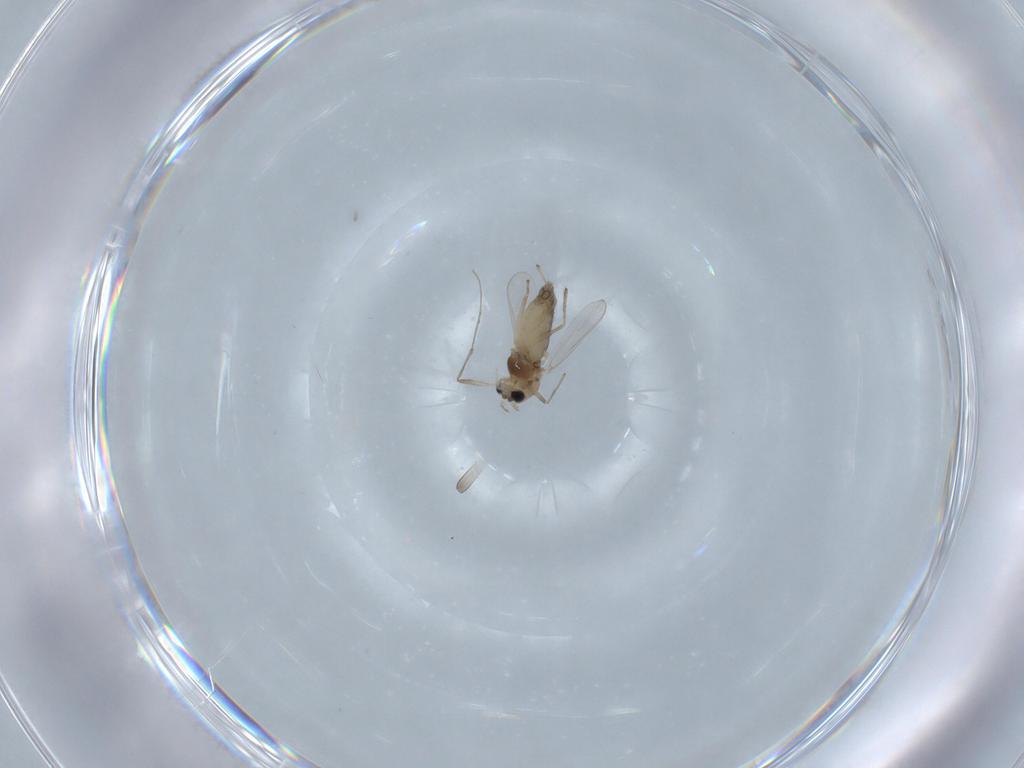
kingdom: Animalia
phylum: Arthropoda
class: Insecta
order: Diptera
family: Chironomidae
